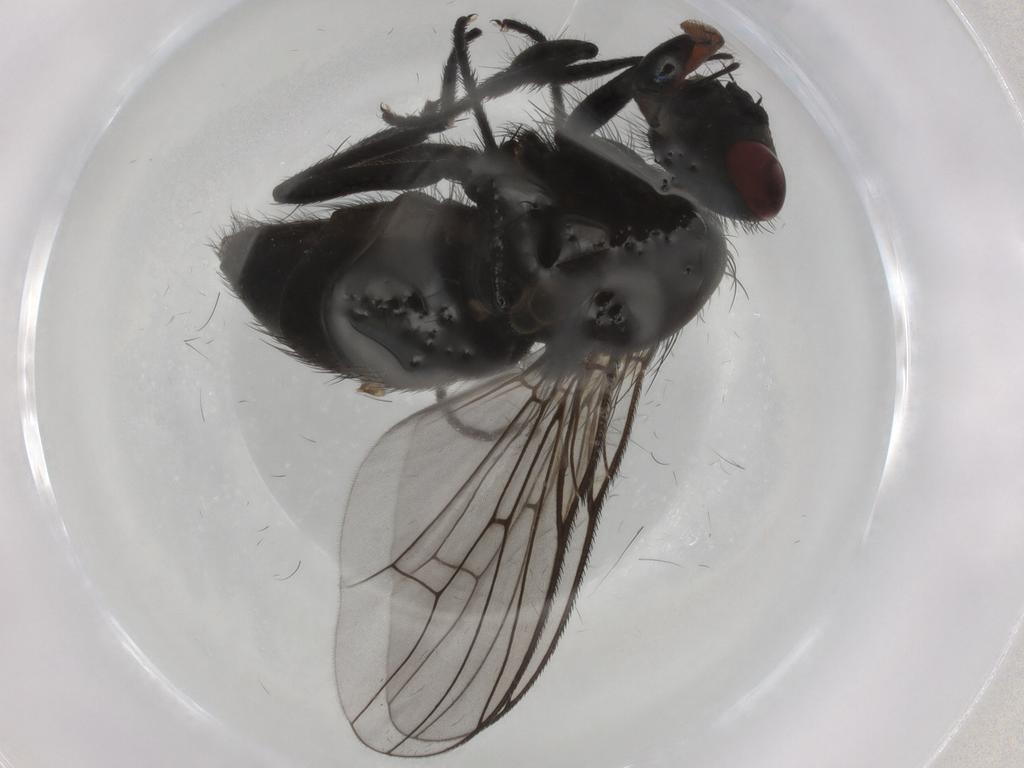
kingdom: Animalia
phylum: Arthropoda
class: Insecta
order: Diptera
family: Muscidae
